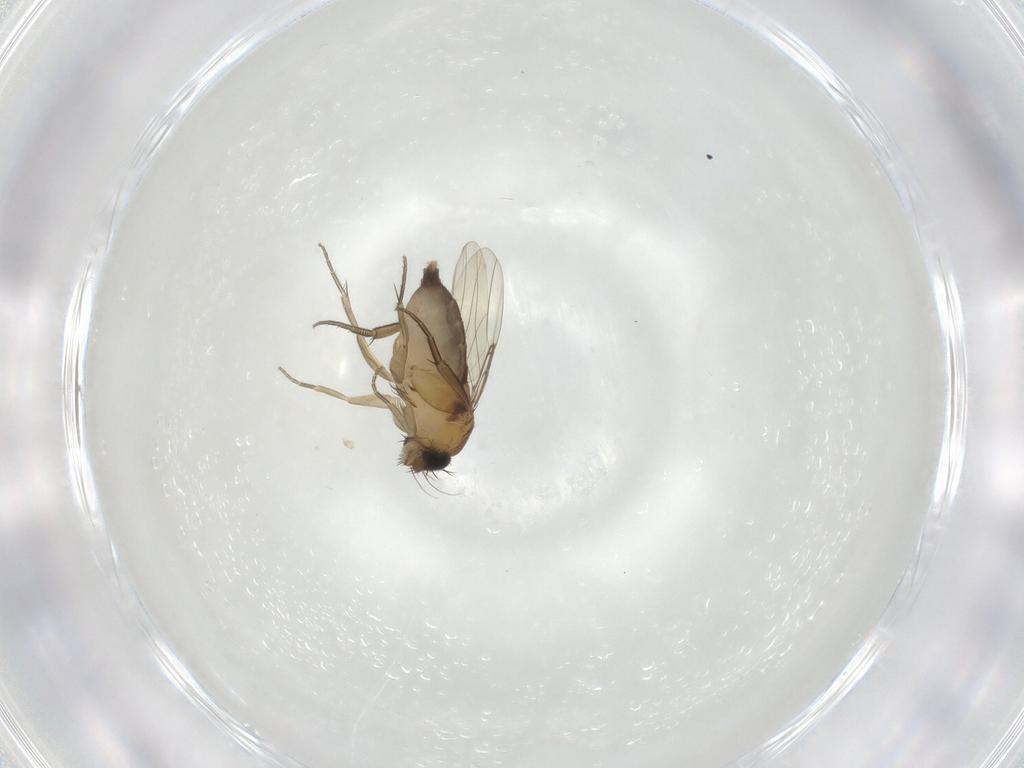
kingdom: Animalia
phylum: Arthropoda
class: Insecta
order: Diptera
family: Phoridae
